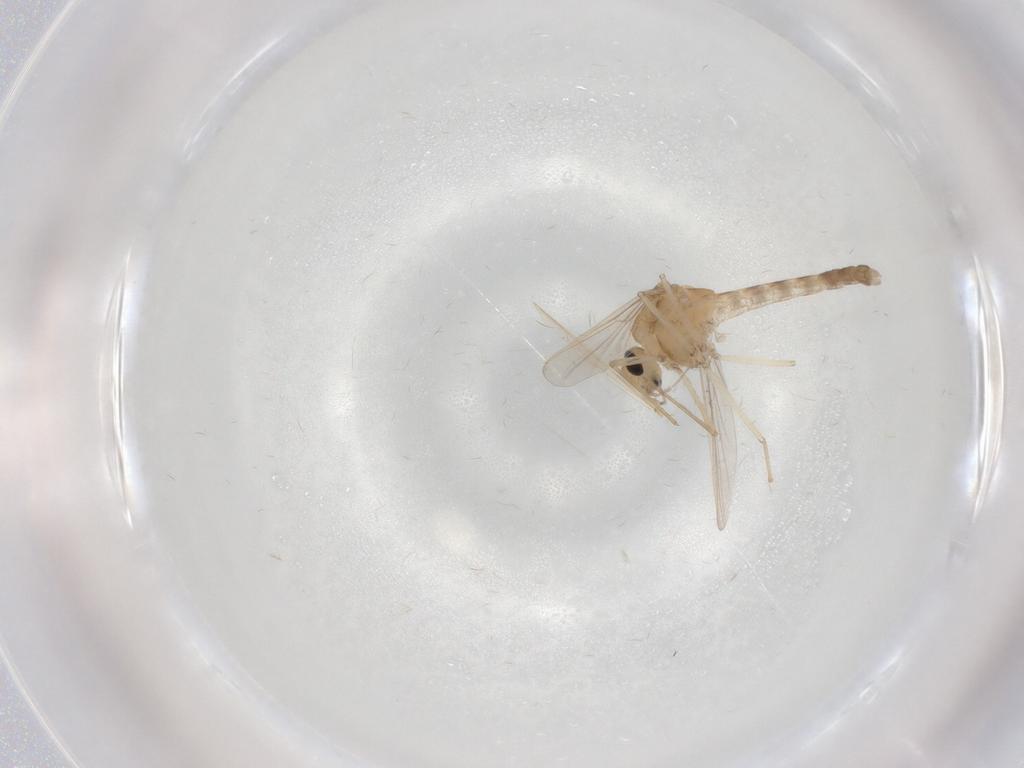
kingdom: Animalia
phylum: Arthropoda
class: Insecta
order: Diptera
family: Chironomidae
